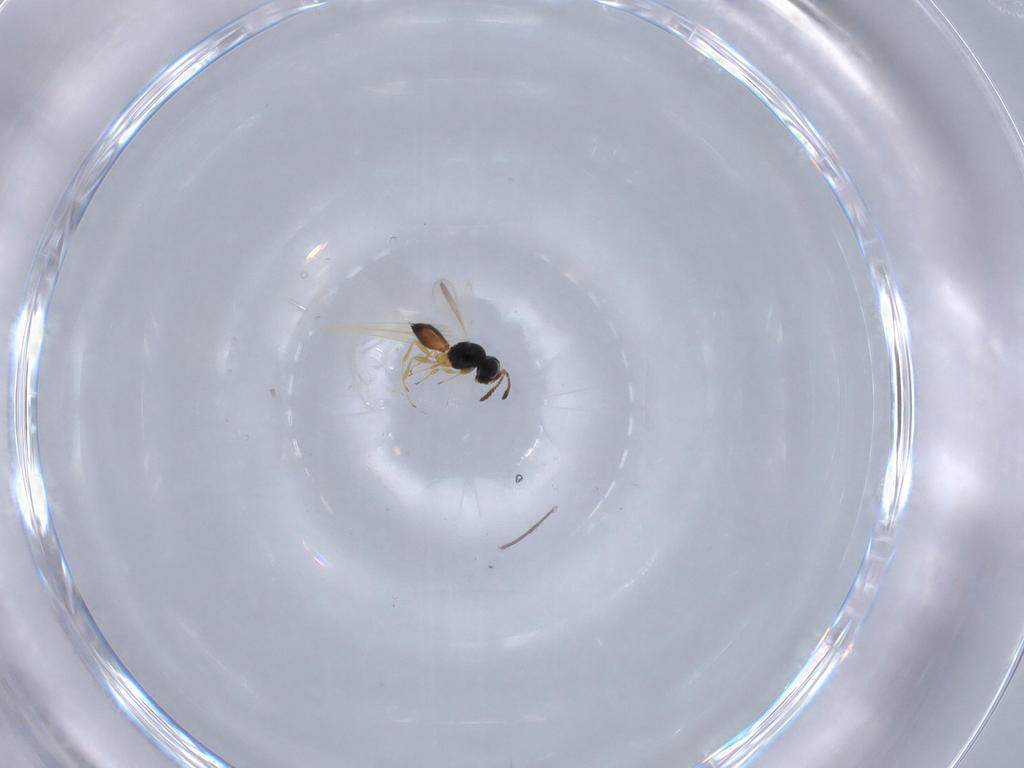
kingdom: Animalia
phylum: Arthropoda
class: Insecta
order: Hymenoptera
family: Scelionidae
